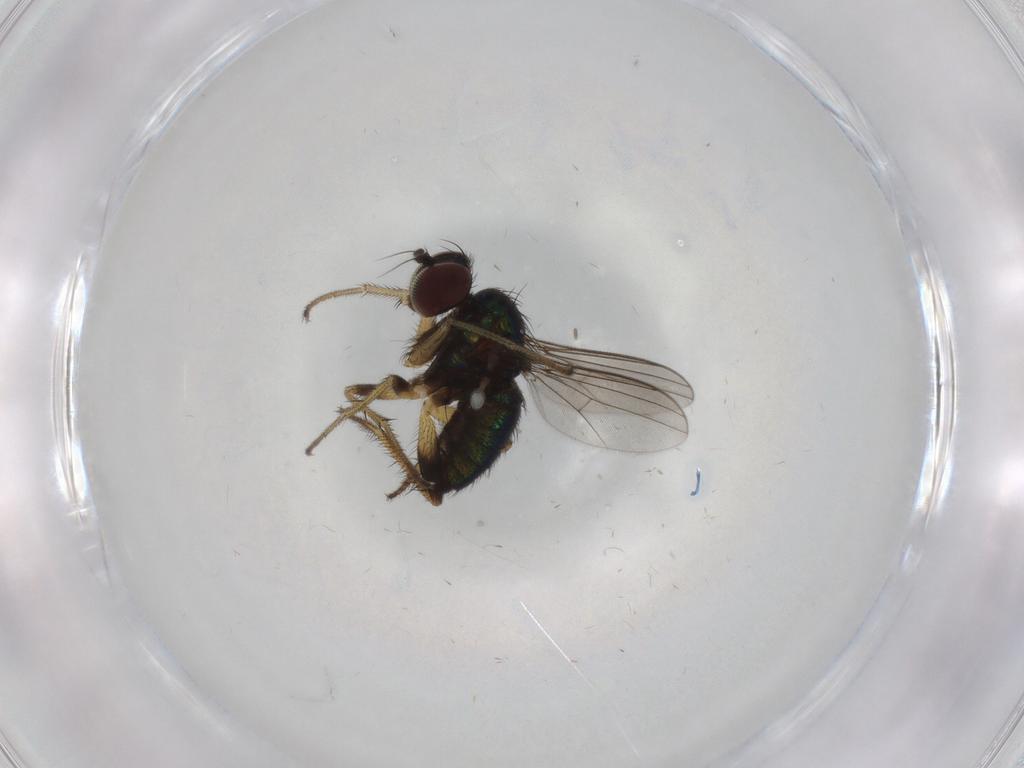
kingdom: Animalia
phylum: Arthropoda
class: Insecta
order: Diptera
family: Dolichopodidae
